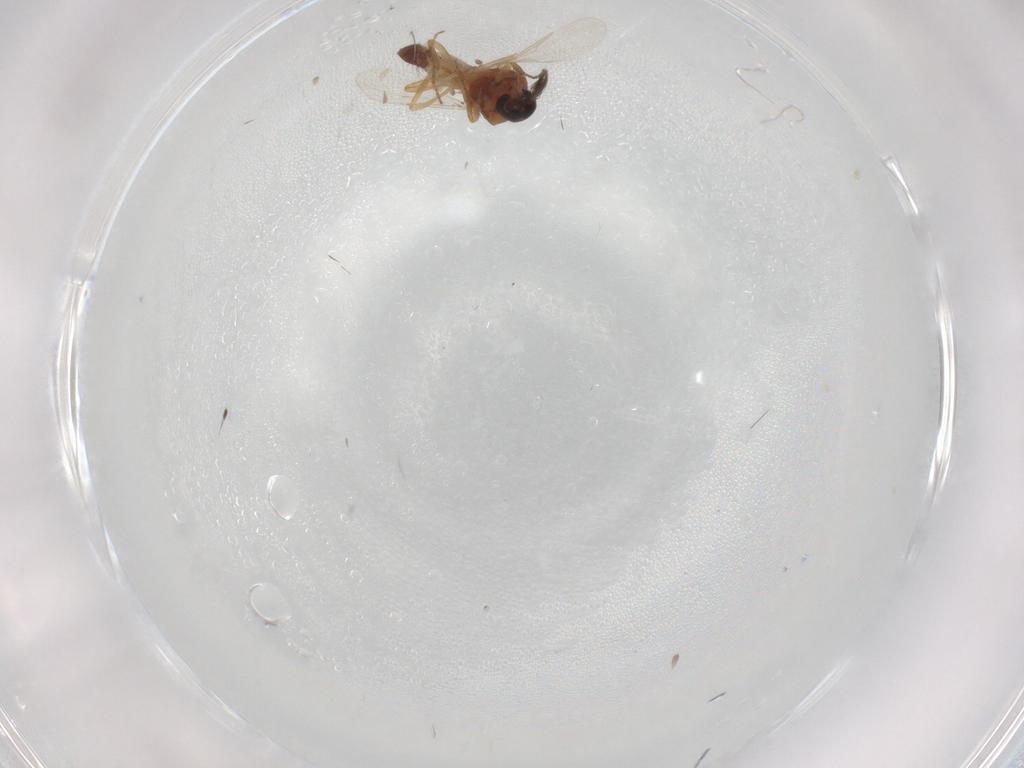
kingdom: Animalia
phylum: Arthropoda
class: Insecta
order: Diptera
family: Ceratopogonidae
